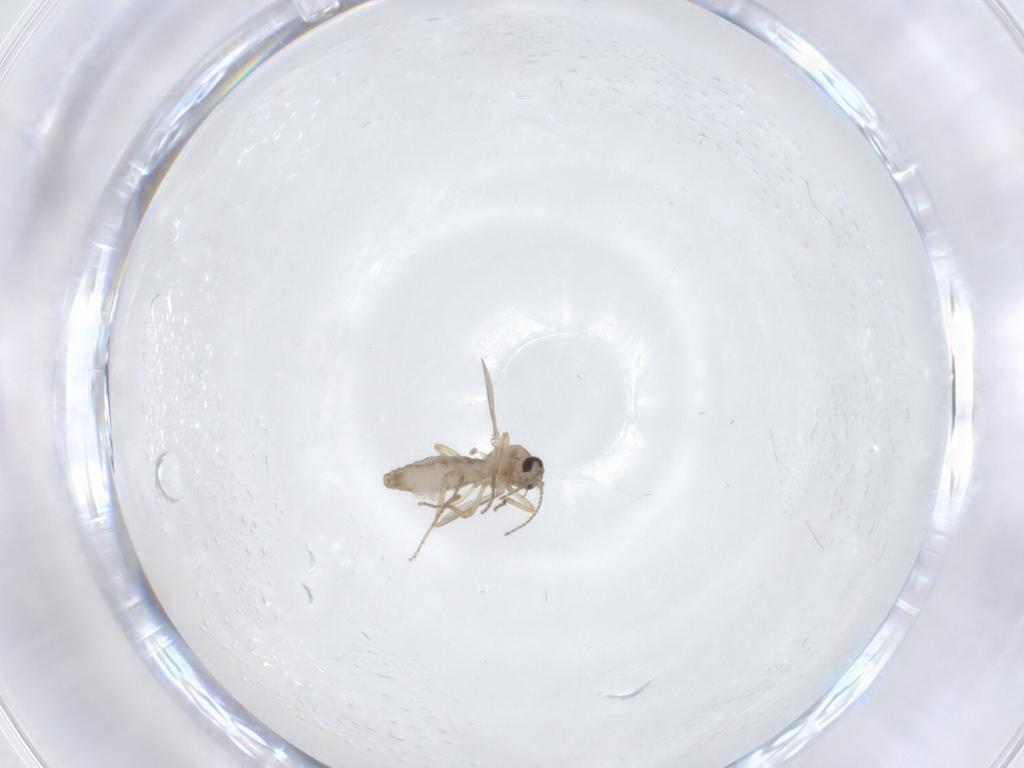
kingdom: Animalia
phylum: Arthropoda
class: Insecta
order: Diptera
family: Ceratopogonidae
